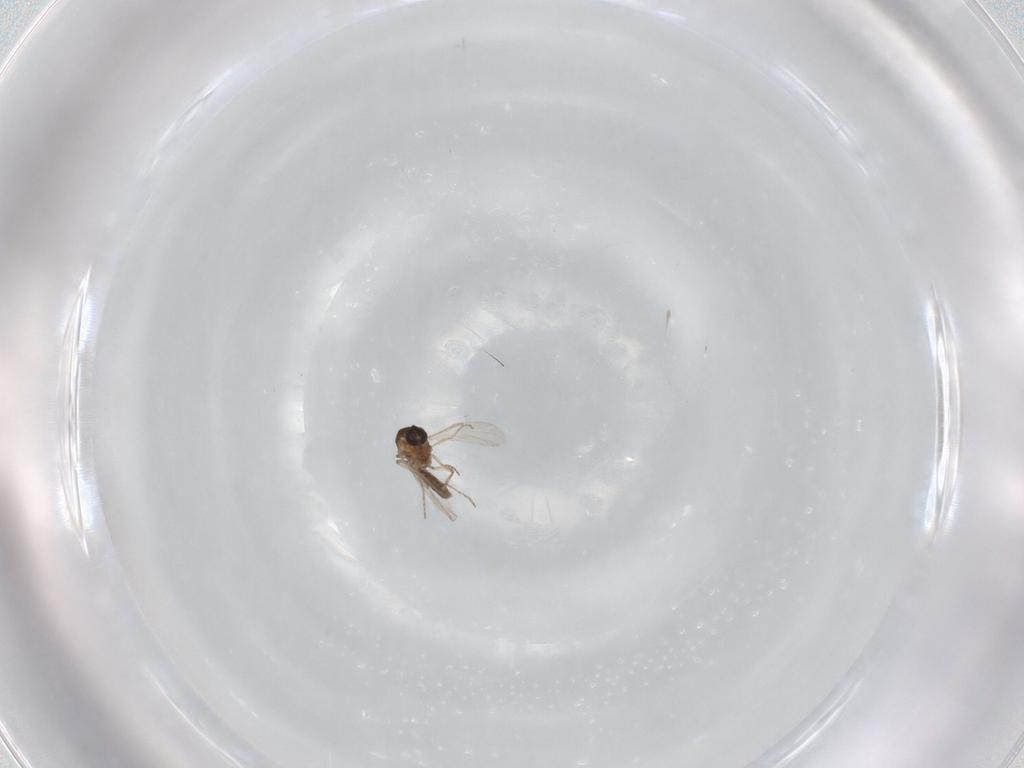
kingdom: Animalia
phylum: Arthropoda
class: Insecta
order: Diptera
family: Ceratopogonidae
